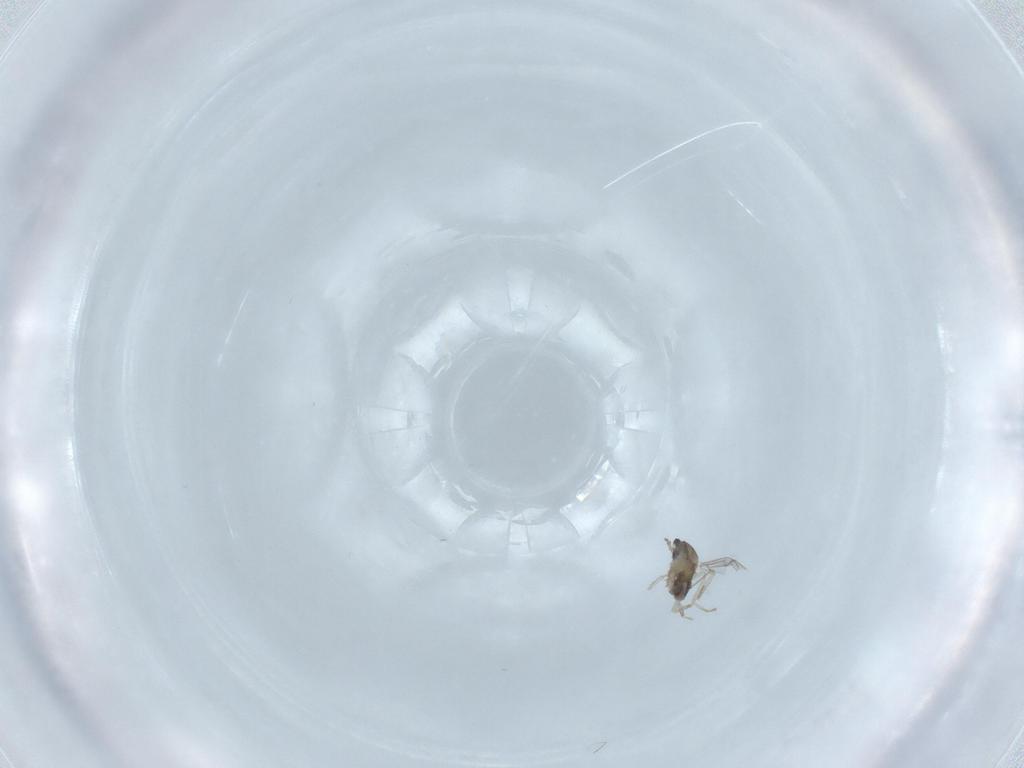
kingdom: Animalia
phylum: Arthropoda
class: Insecta
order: Diptera
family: Cecidomyiidae
